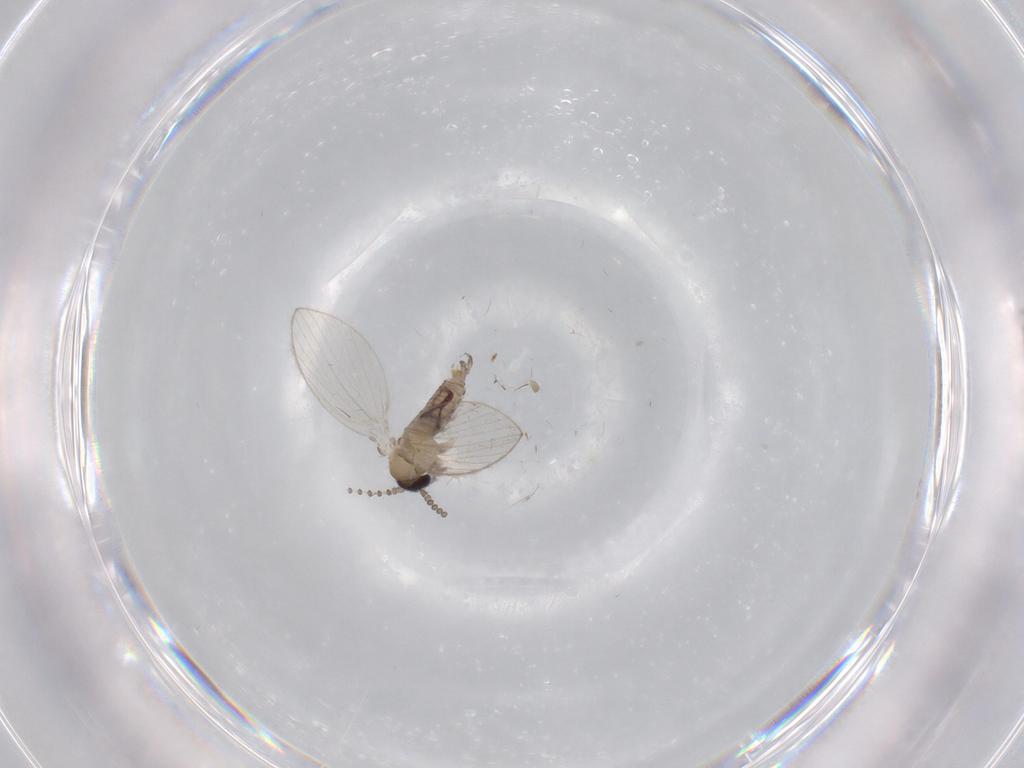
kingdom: Animalia
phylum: Arthropoda
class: Insecta
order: Diptera
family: Psychodidae
